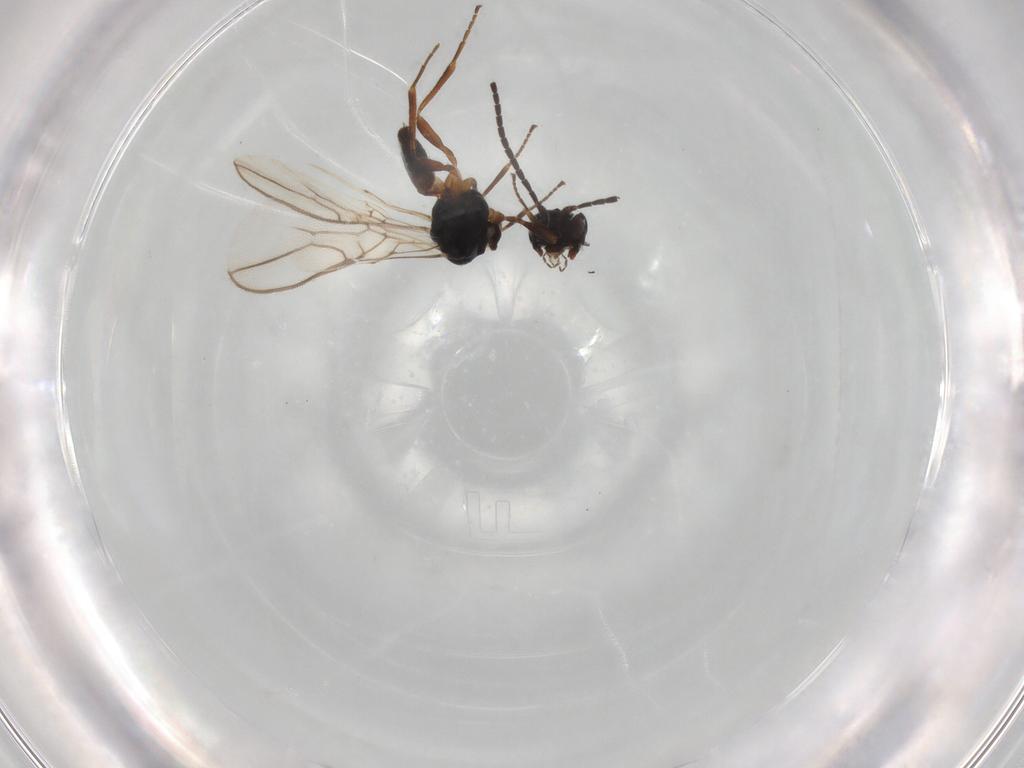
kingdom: Animalia
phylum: Arthropoda
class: Insecta
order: Hymenoptera
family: Braconidae
